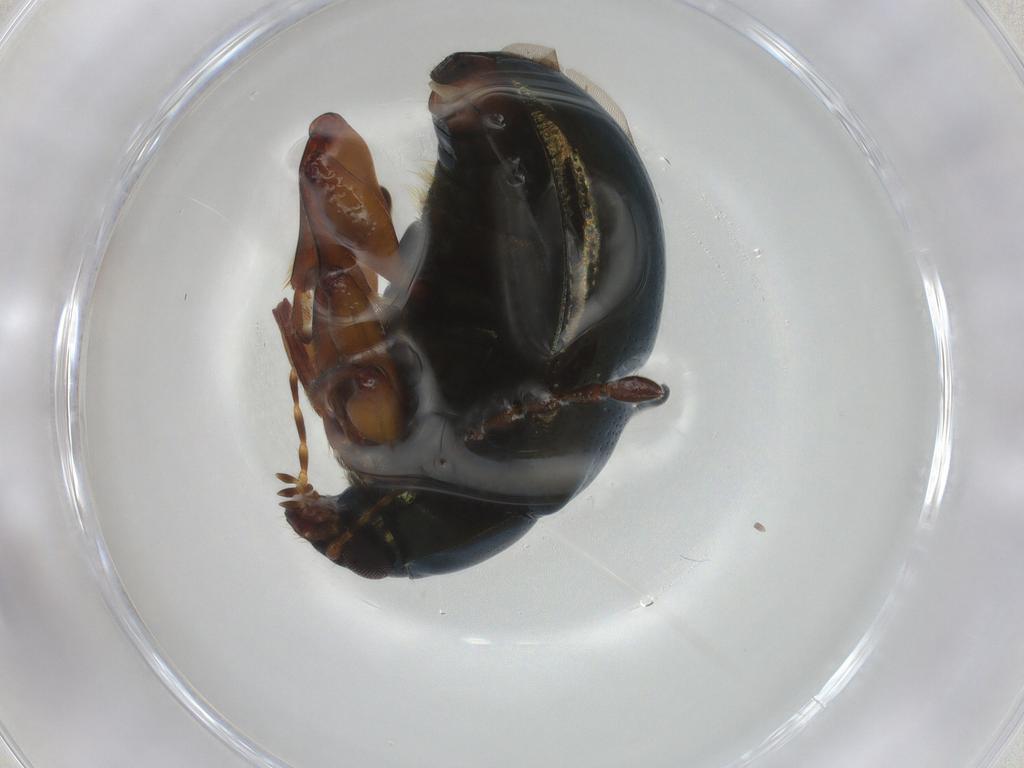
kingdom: Animalia
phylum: Arthropoda
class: Insecta
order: Coleoptera
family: Chrysomelidae
